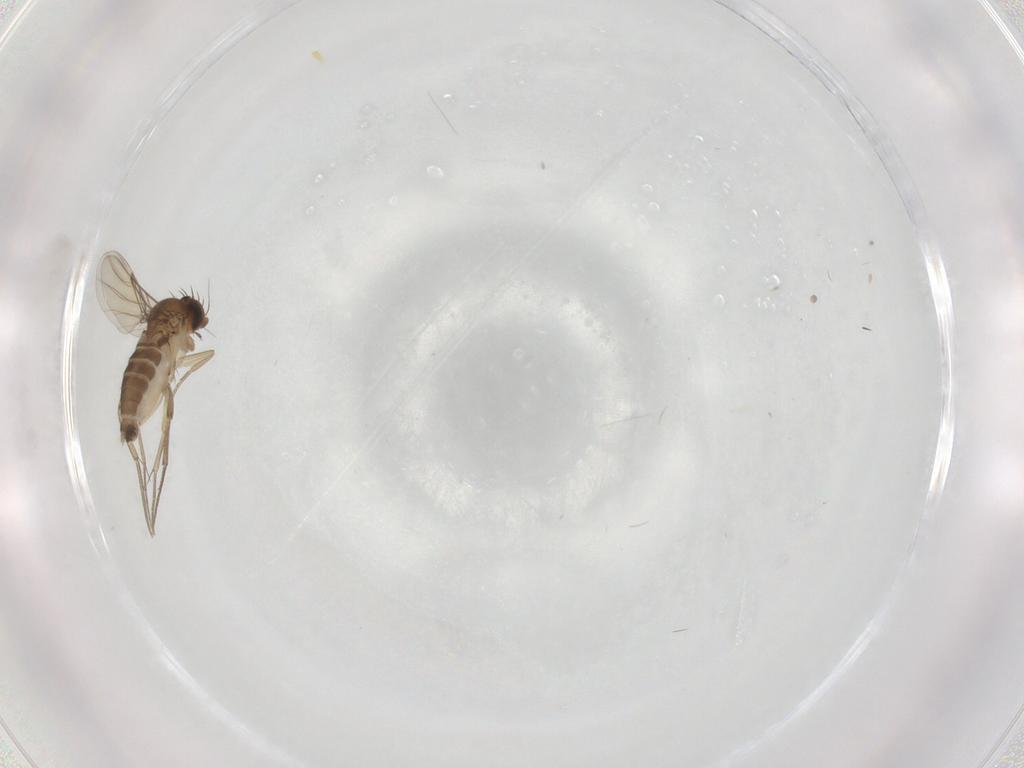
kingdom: Animalia
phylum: Arthropoda
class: Insecta
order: Diptera
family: Phoridae
